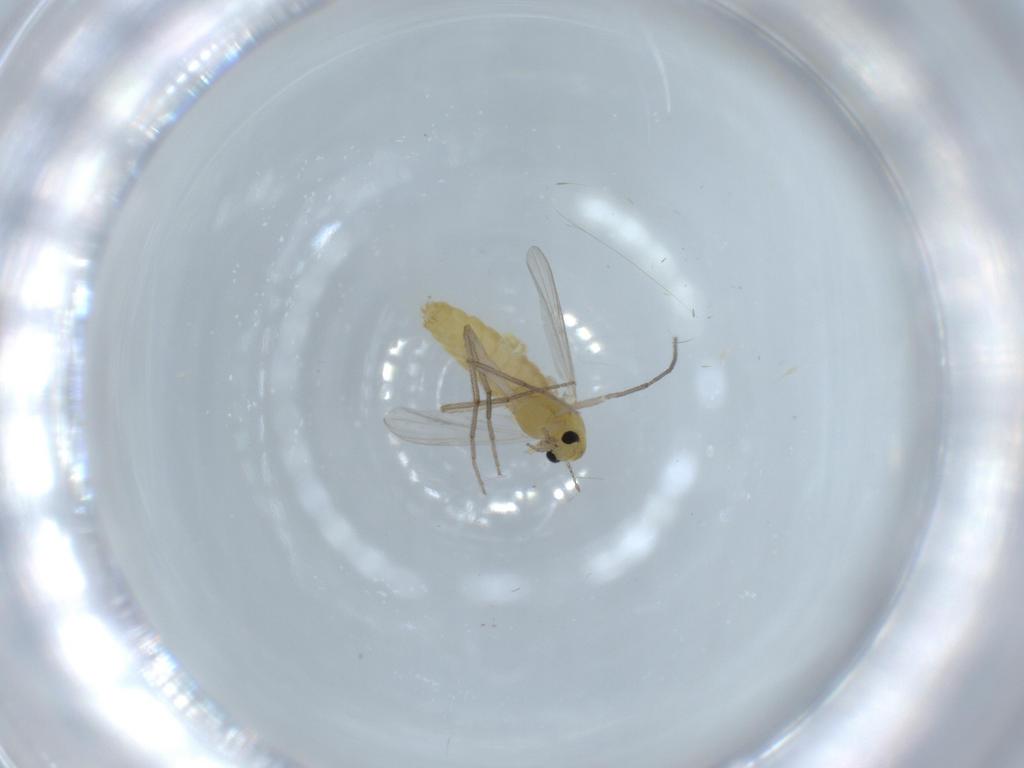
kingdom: Animalia
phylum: Arthropoda
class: Insecta
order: Diptera
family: Chironomidae
